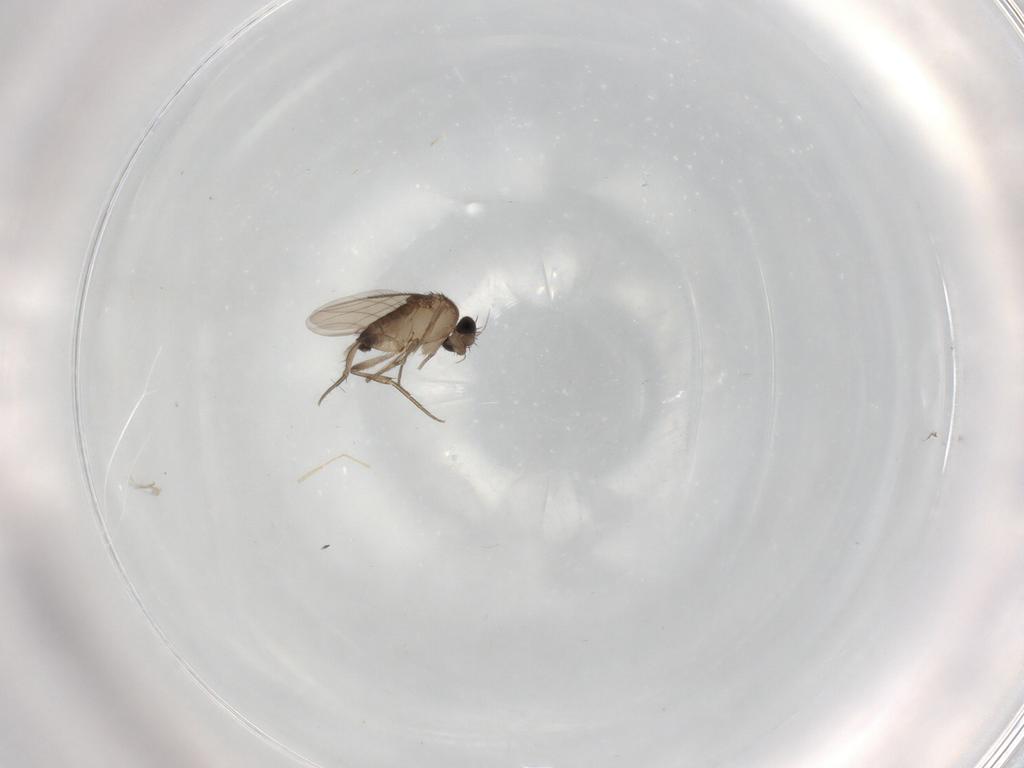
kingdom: Animalia
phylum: Arthropoda
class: Insecta
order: Diptera
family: Phoridae
